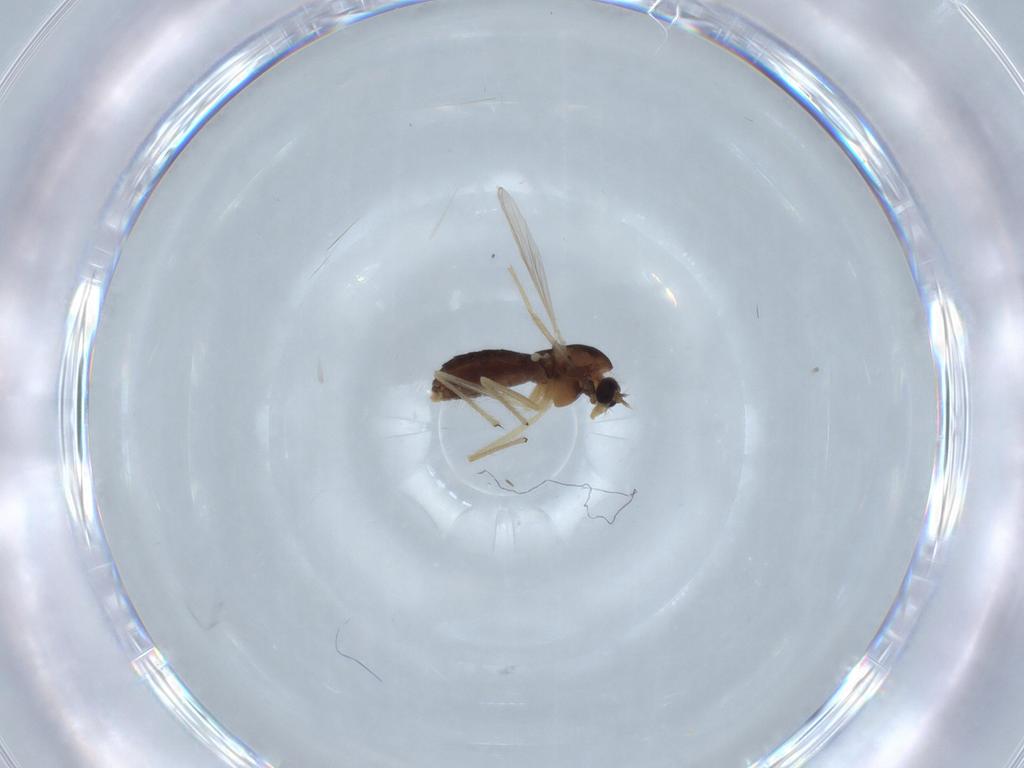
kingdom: Animalia
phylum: Arthropoda
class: Insecta
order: Diptera
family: Chironomidae
